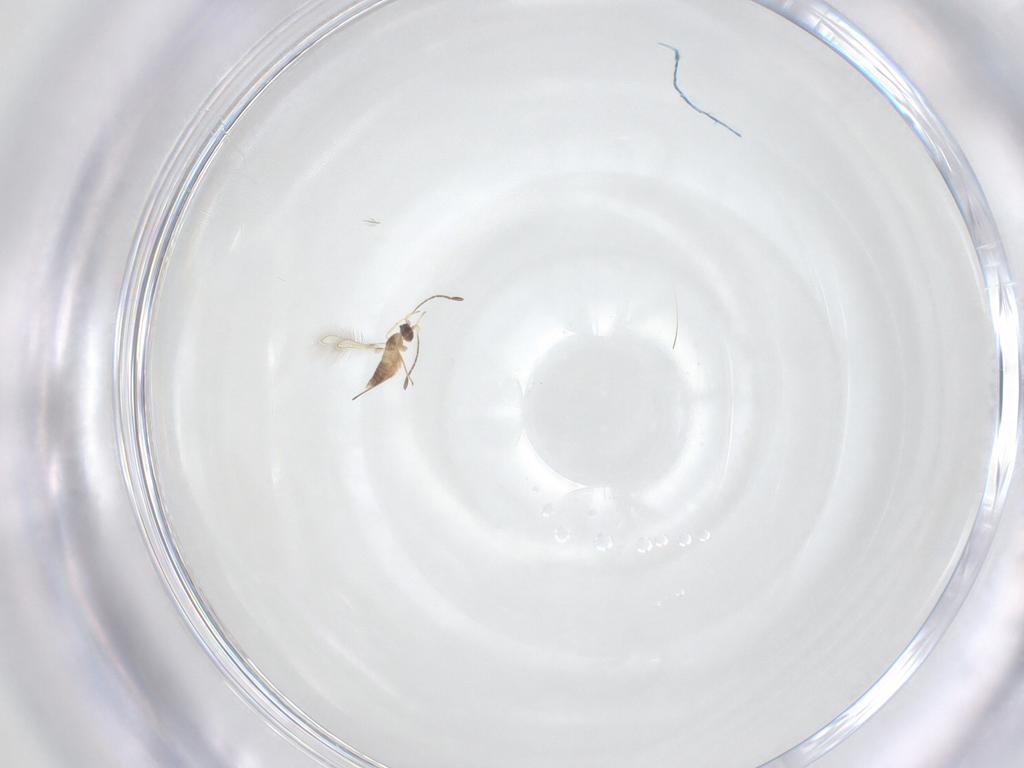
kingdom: Animalia
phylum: Arthropoda
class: Insecta
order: Hymenoptera
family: Mymaridae
